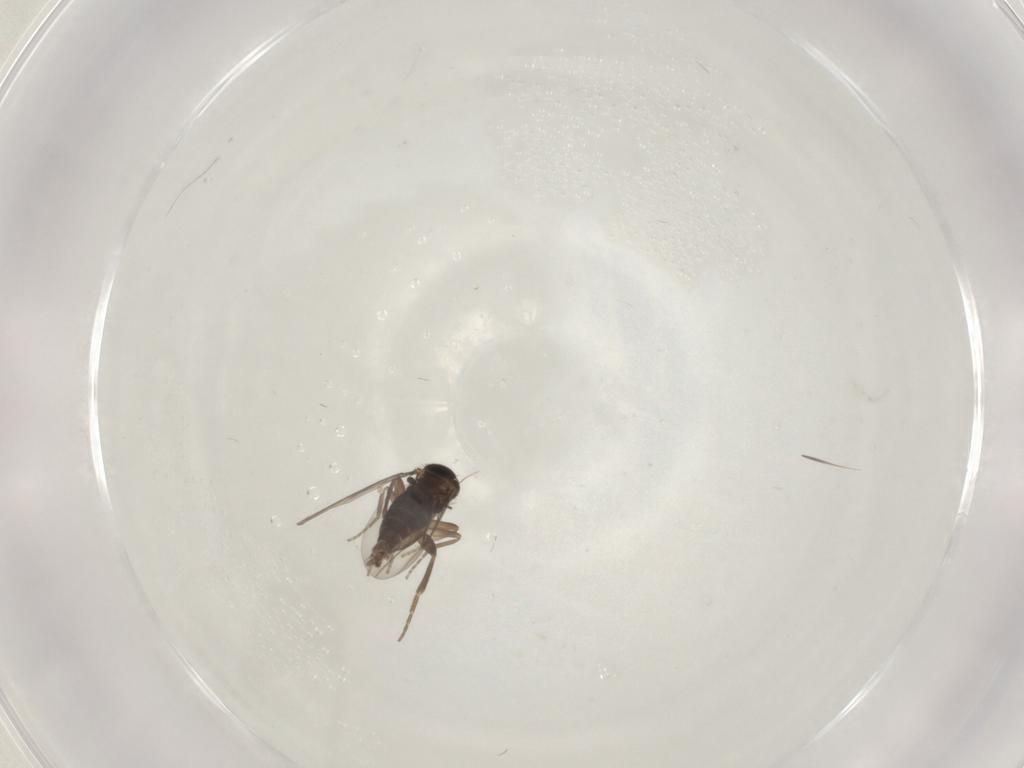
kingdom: Animalia
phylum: Arthropoda
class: Insecta
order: Diptera
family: Phoridae
